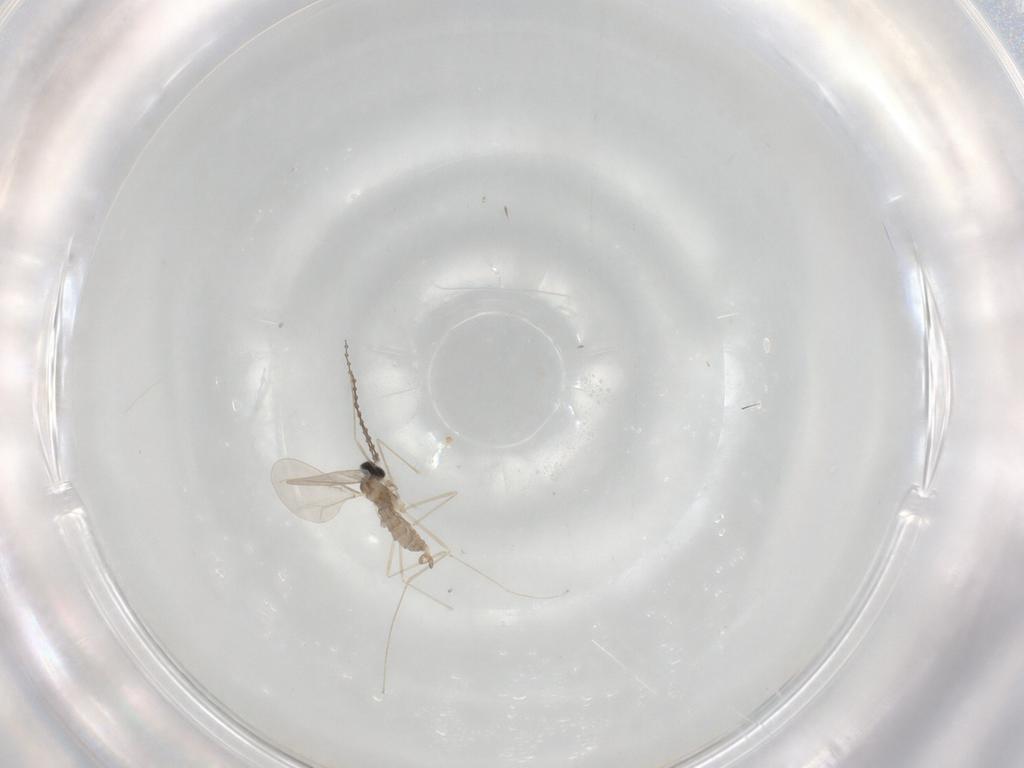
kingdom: Animalia
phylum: Arthropoda
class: Insecta
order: Diptera
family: Cecidomyiidae
